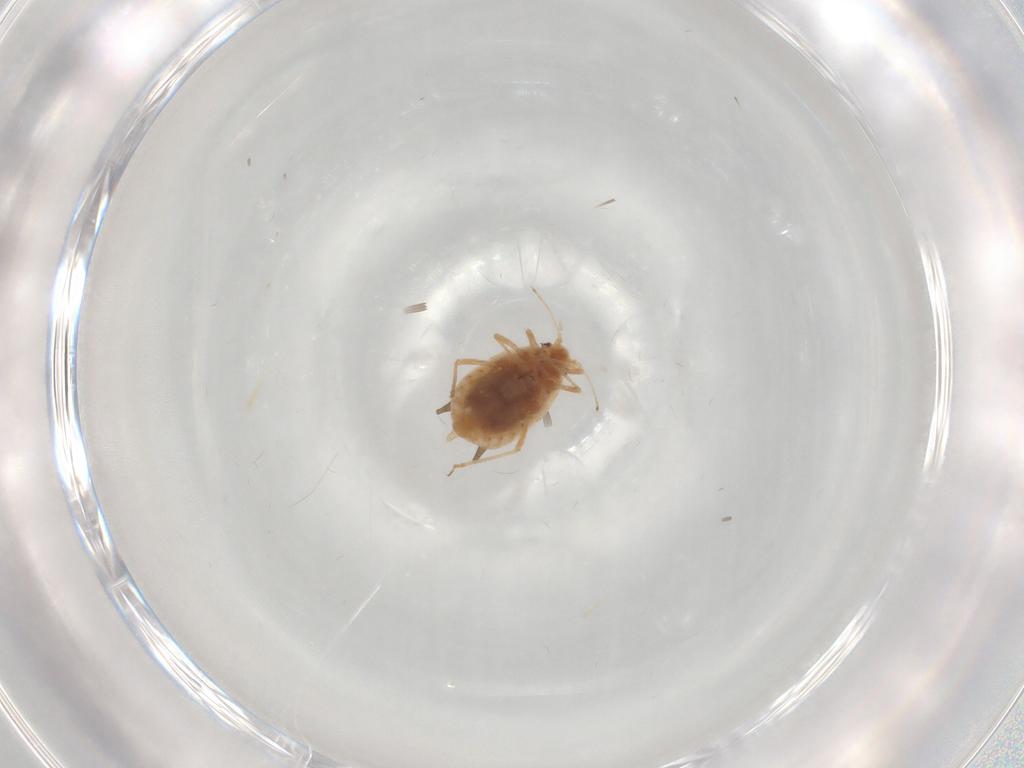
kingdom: Animalia
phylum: Arthropoda
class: Insecta
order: Hemiptera
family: Aphididae
